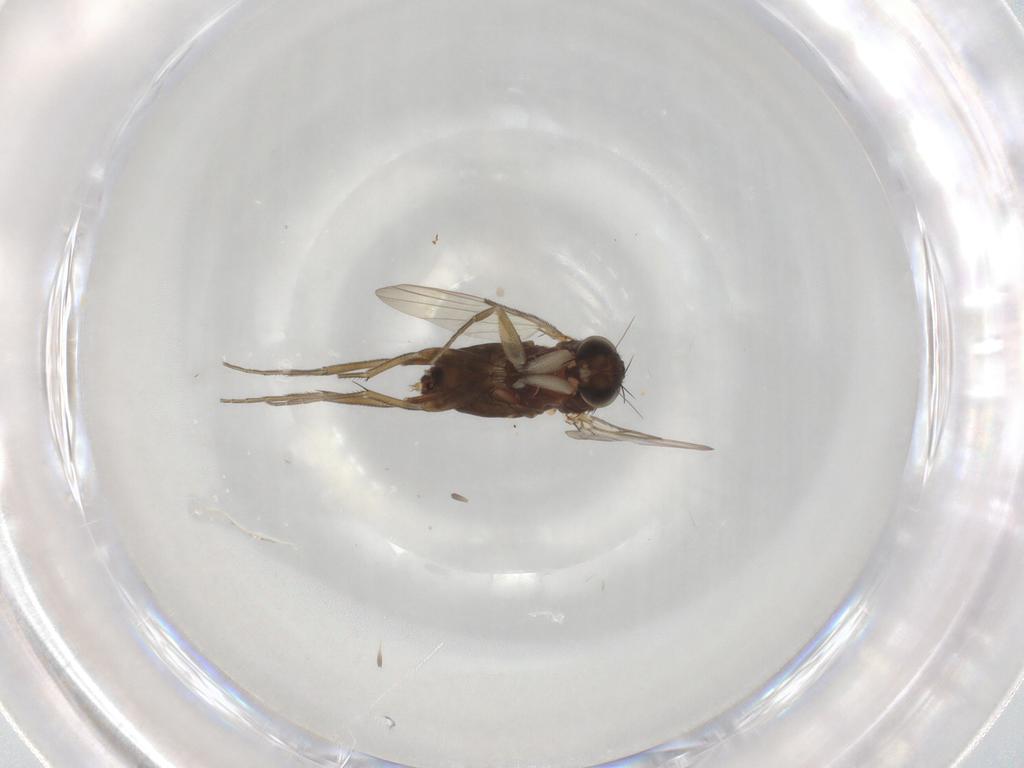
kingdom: Animalia
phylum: Arthropoda
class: Insecta
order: Diptera
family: Phoridae
